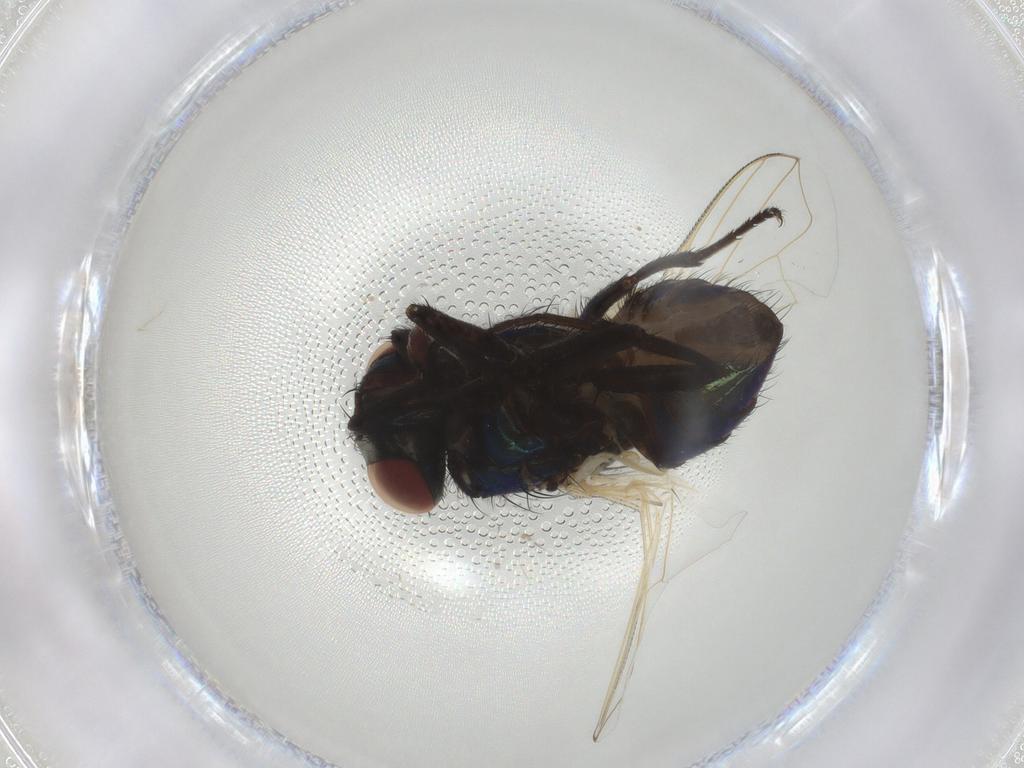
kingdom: Animalia
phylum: Arthropoda
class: Insecta
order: Diptera
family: Muscidae
